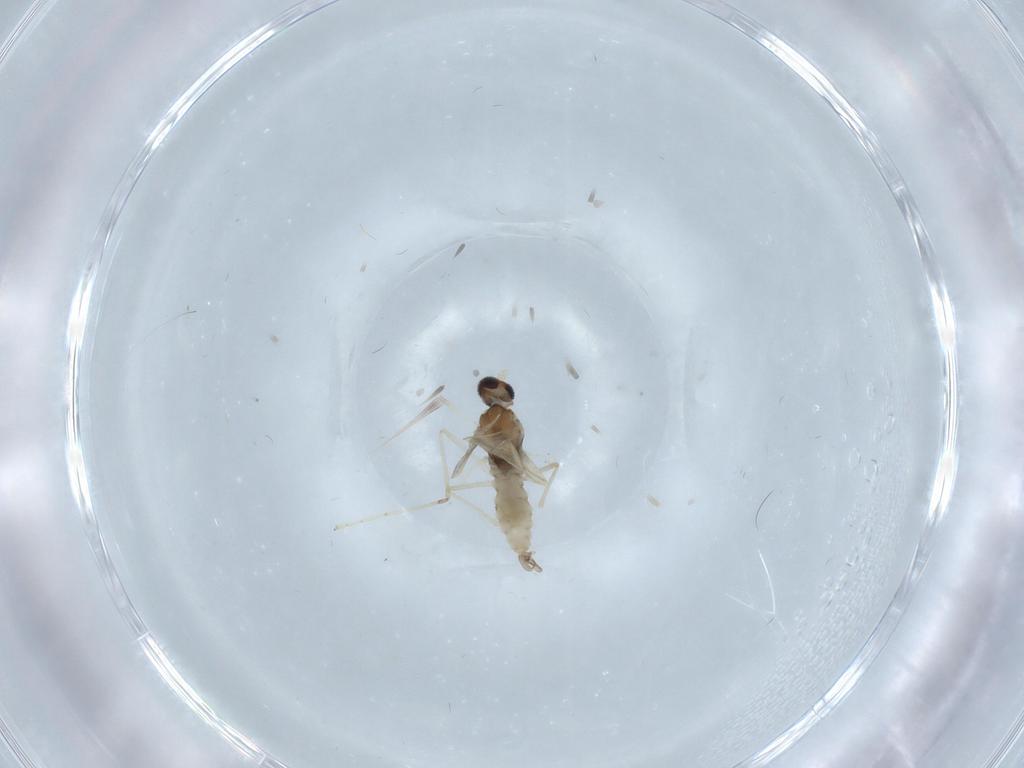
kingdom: Animalia
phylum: Arthropoda
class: Insecta
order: Diptera
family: Cecidomyiidae
